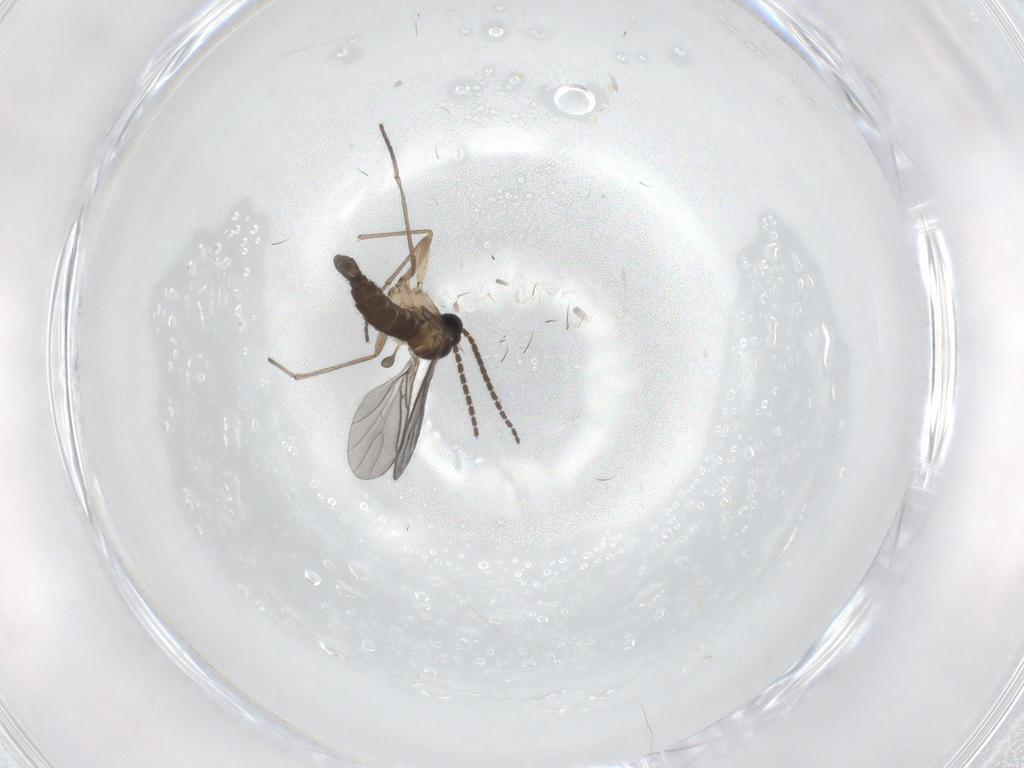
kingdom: Animalia
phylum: Arthropoda
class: Insecta
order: Diptera
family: Sciaridae
